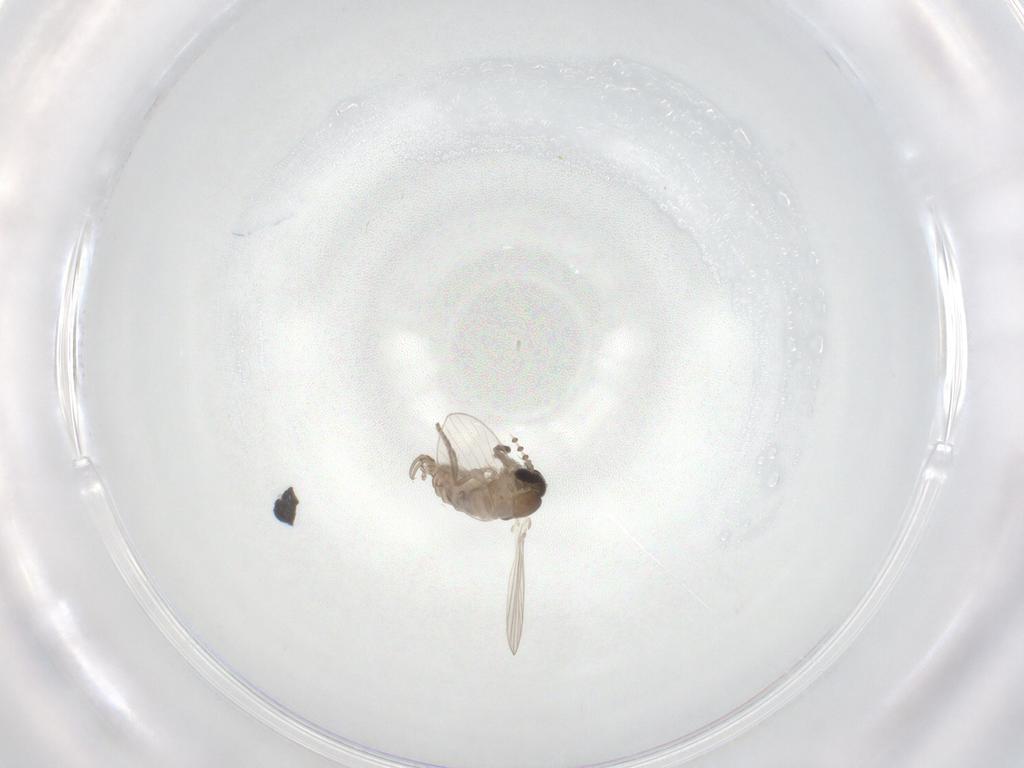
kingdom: Animalia
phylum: Arthropoda
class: Insecta
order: Diptera
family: Psychodidae
